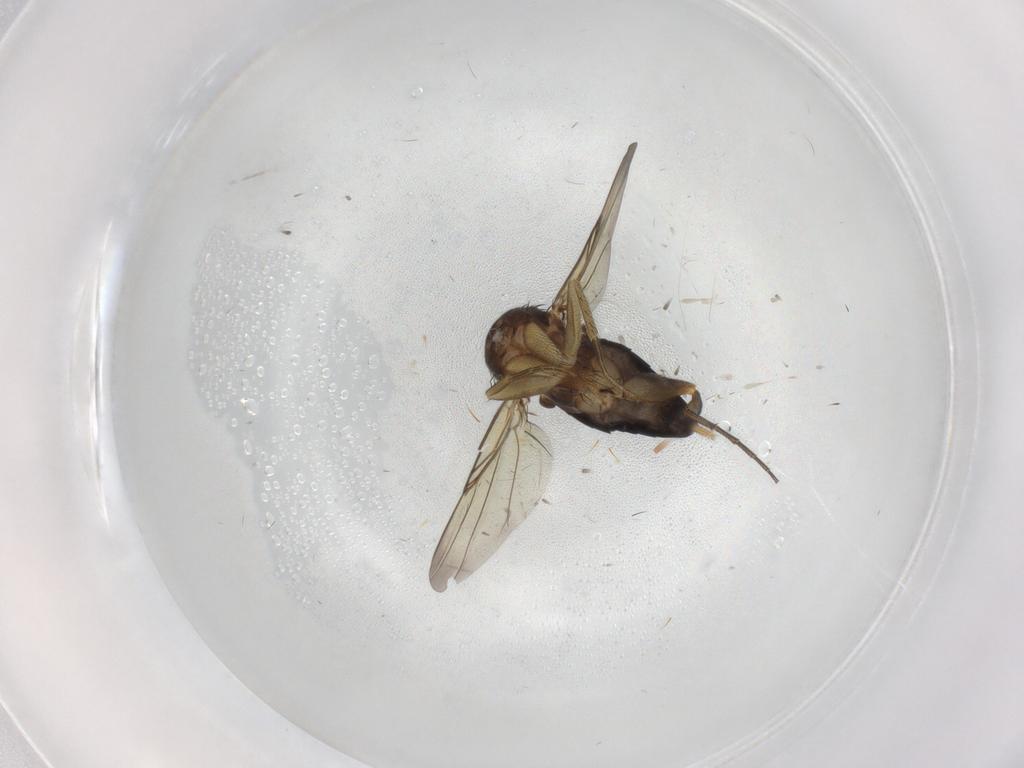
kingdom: Animalia
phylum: Arthropoda
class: Insecta
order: Diptera
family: Phoridae
